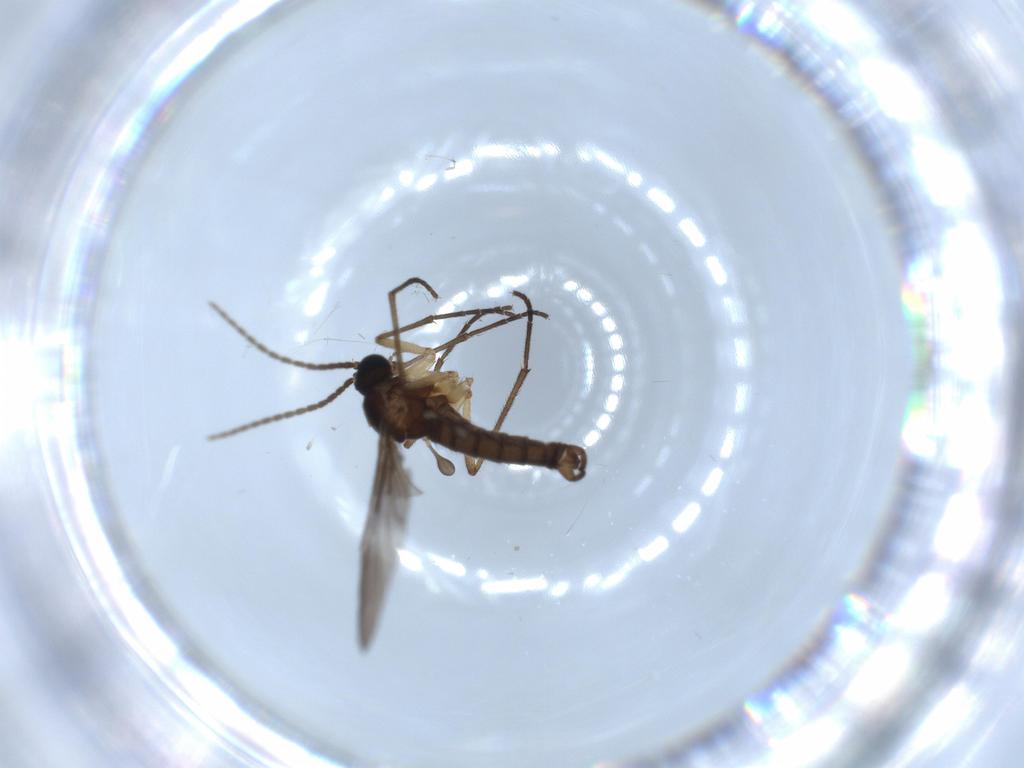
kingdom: Animalia
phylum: Arthropoda
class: Insecta
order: Diptera
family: Sciaridae
